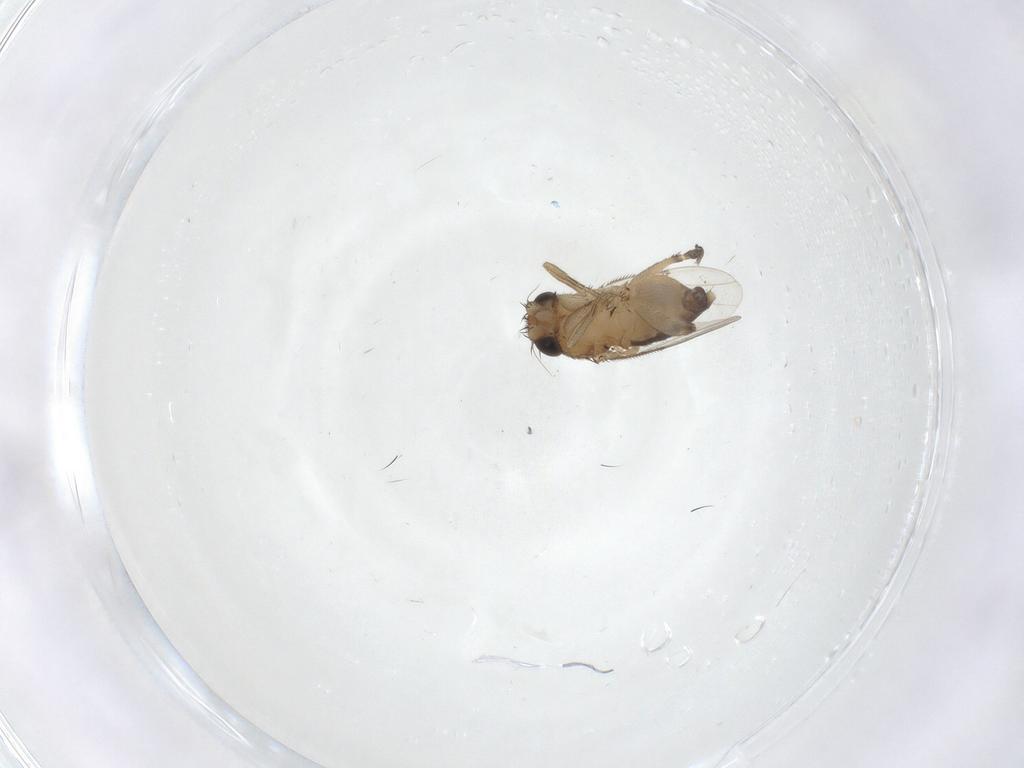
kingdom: Animalia
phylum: Arthropoda
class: Insecta
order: Diptera
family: Phoridae
